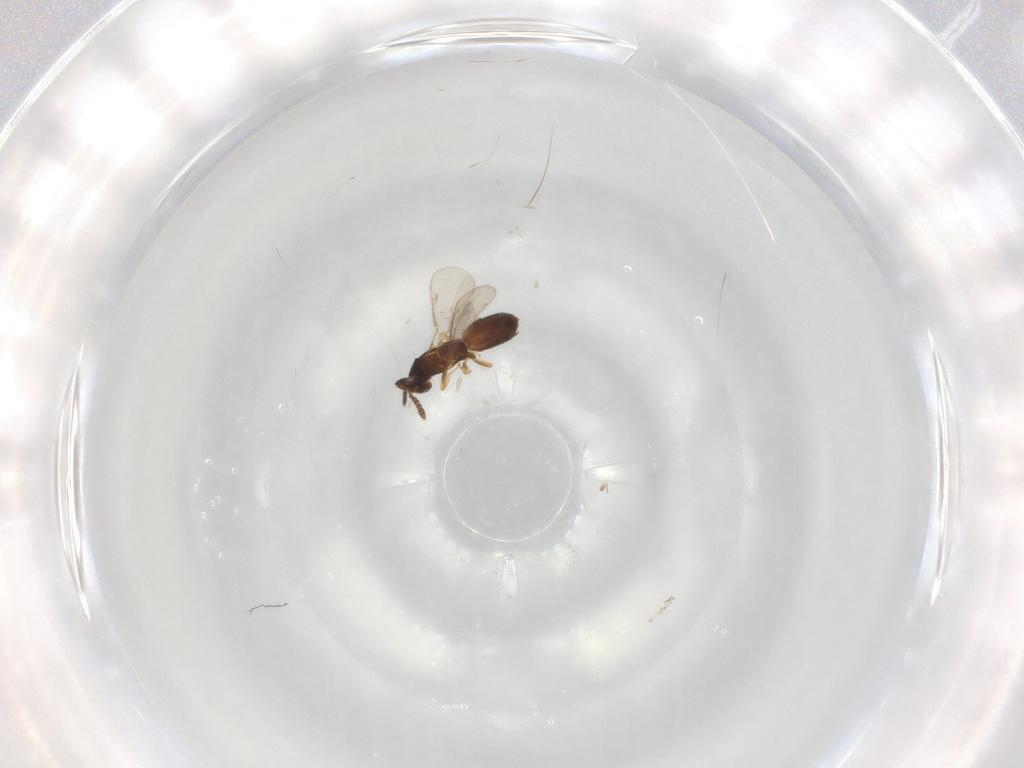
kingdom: Animalia
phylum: Arthropoda
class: Insecta
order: Hymenoptera
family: Eulophidae
